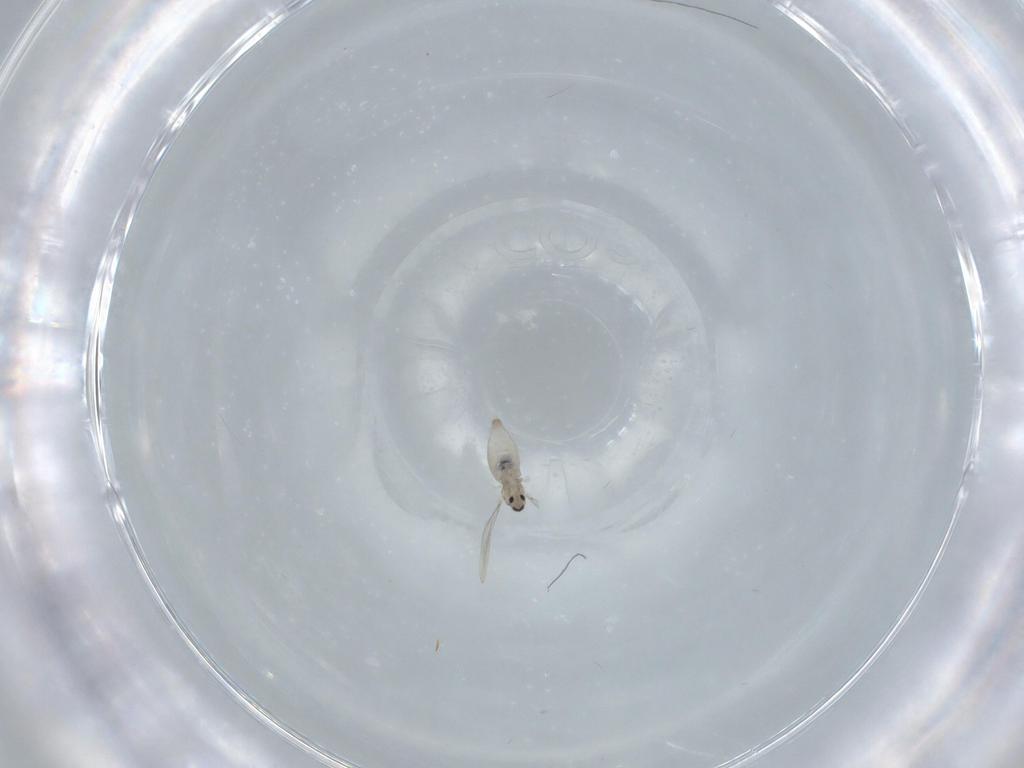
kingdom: Animalia
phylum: Arthropoda
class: Insecta
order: Diptera
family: Cecidomyiidae
